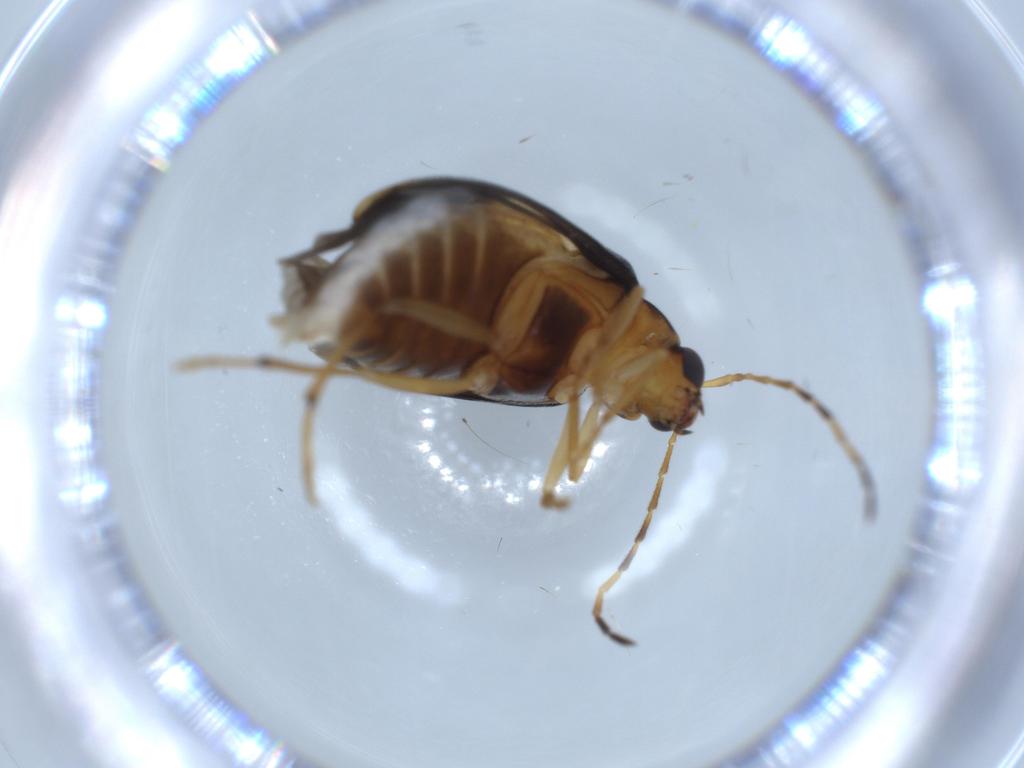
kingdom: Animalia
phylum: Arthropoda
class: Insecta
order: Coleoptera
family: Chrysomelidae
